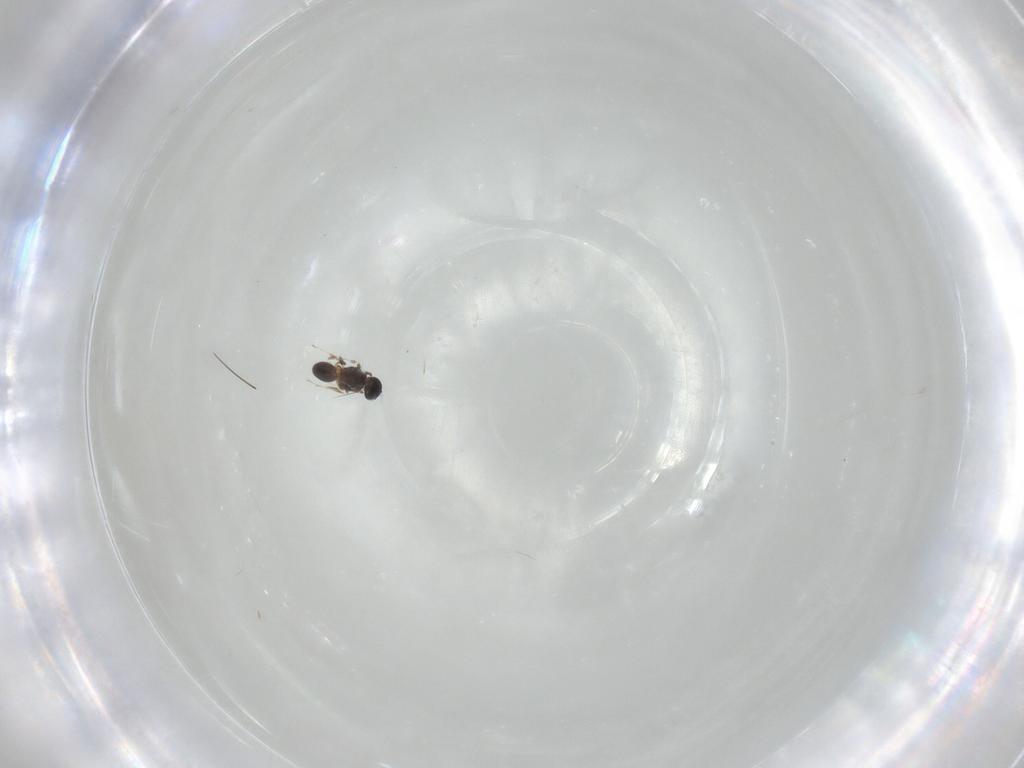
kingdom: Animalia
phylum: Arthropoda
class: Insecta
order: Hymenoptera
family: Platygastridae
